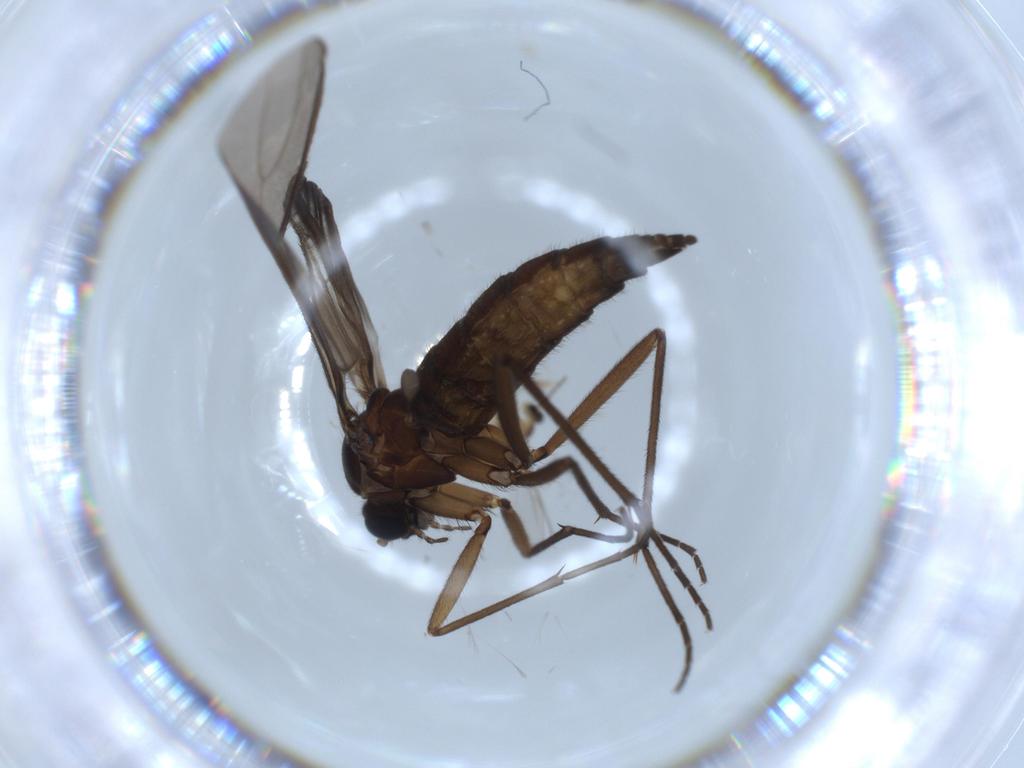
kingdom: Animalia
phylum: Arthropoda
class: Insecta
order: Diptera
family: Sciaridae
